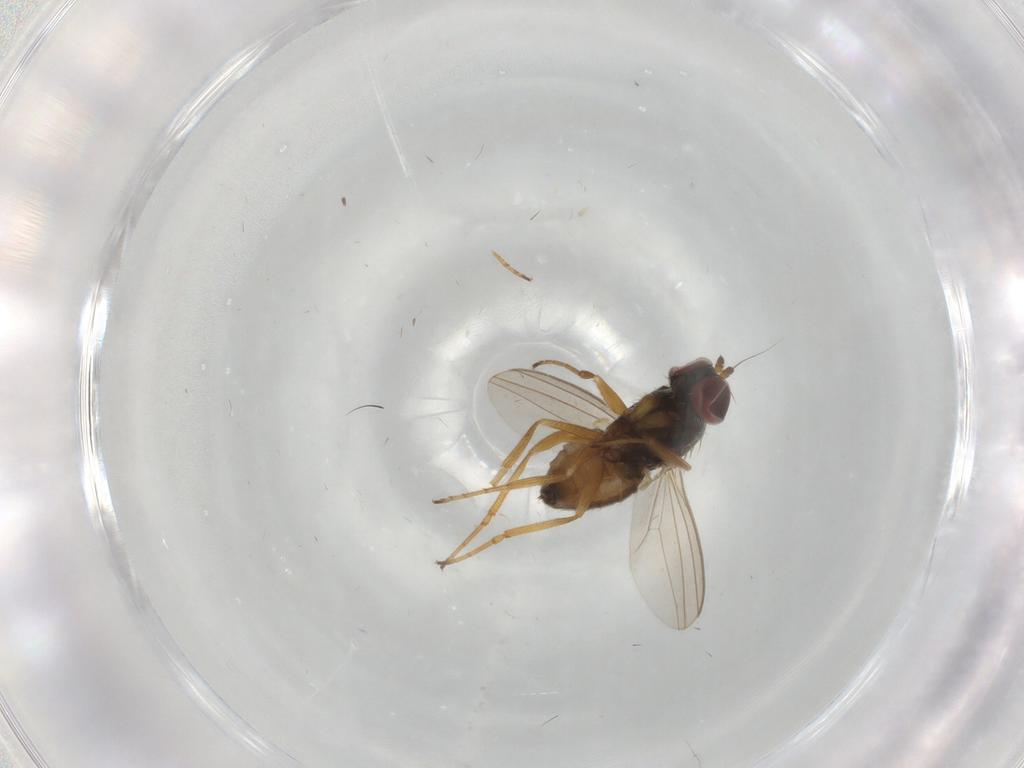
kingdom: Animalia
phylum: Arthropoda
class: Insecta
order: Diptera
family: Dolichopodidae
